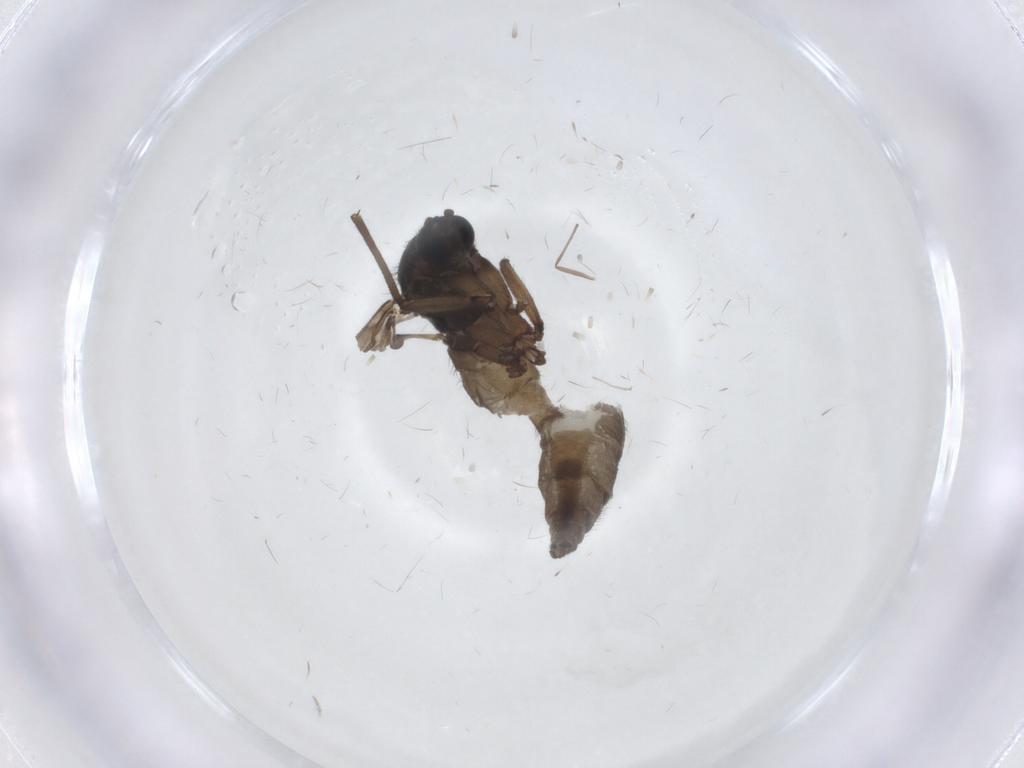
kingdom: Animalia
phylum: Arthropoda
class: Insecta
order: Diptera
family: Sciaridae
